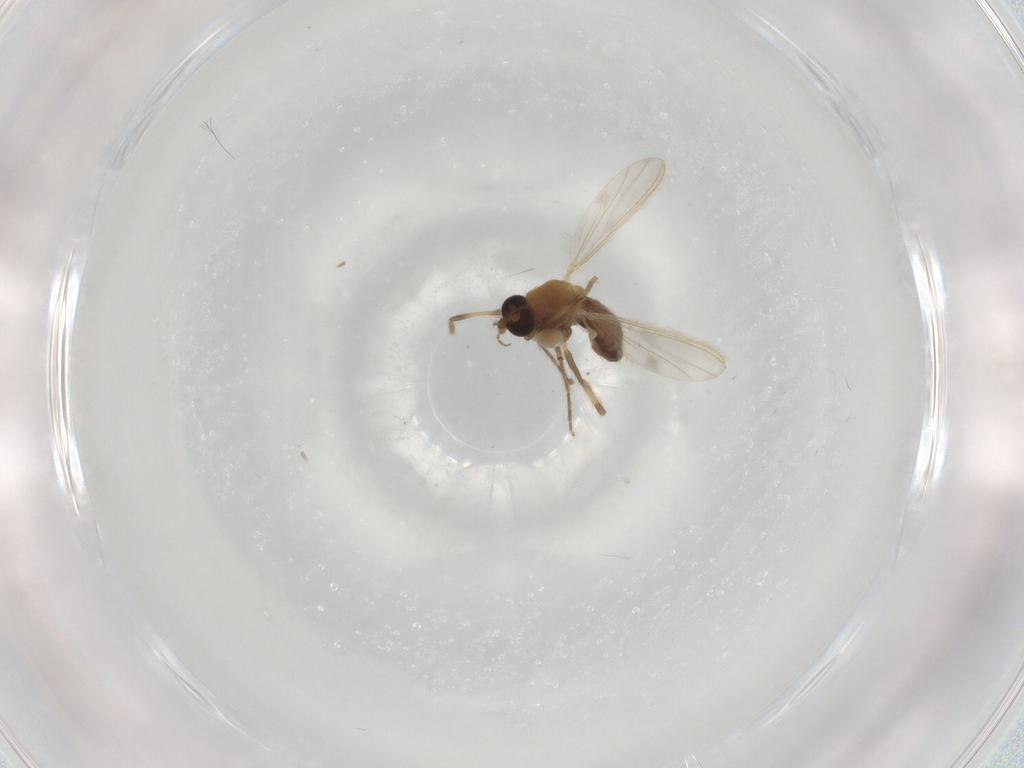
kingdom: Animalia
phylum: Arthropoda
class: Insecta
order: Diptera
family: Chironomidae
